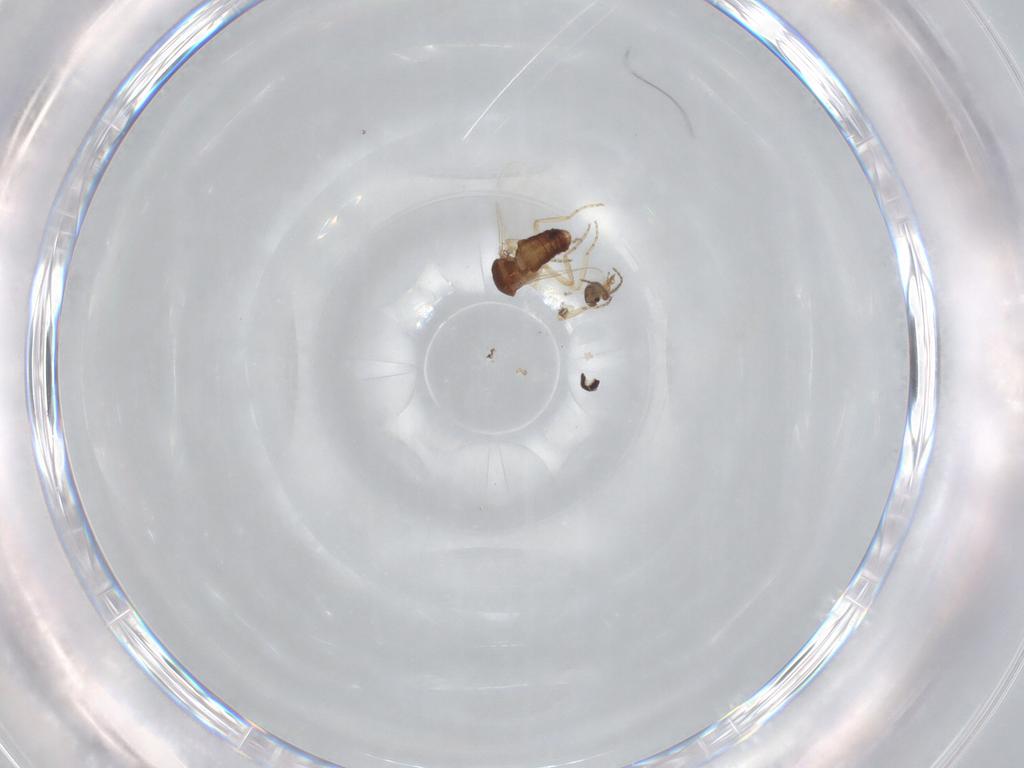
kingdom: Animalia
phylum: Arthropoda
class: Insecta
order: Diptera
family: Ceratopogonidae
